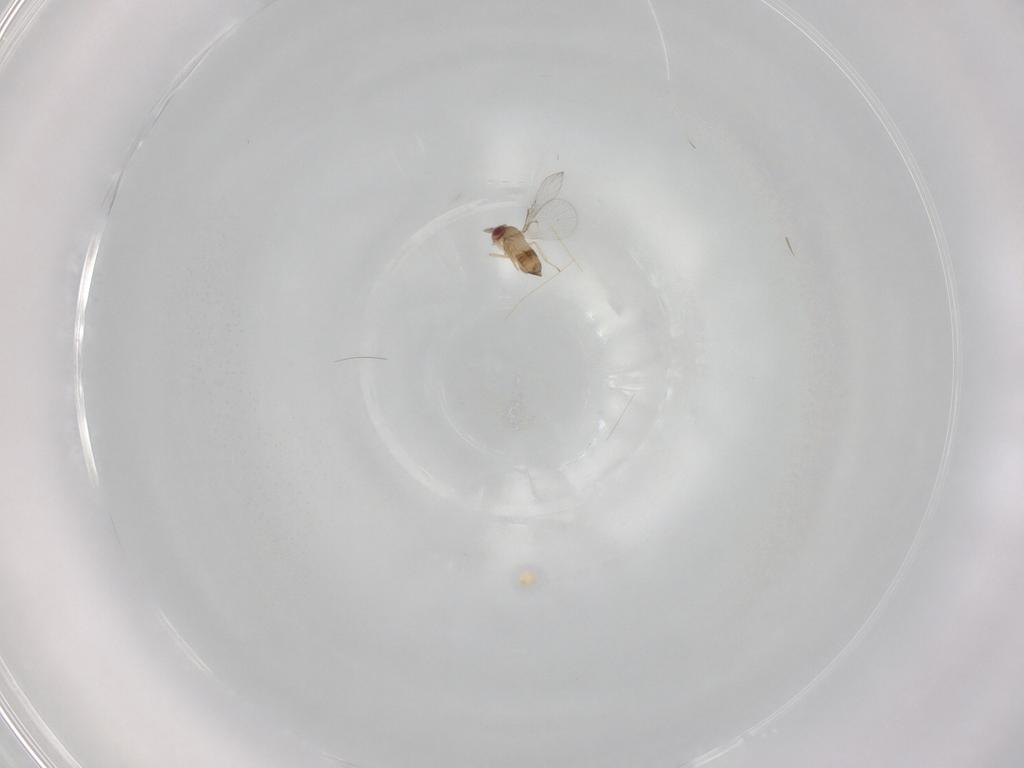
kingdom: Animalia
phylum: Arthropoda
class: Insecta
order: Hymenoptera
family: Trichogrammatidae
